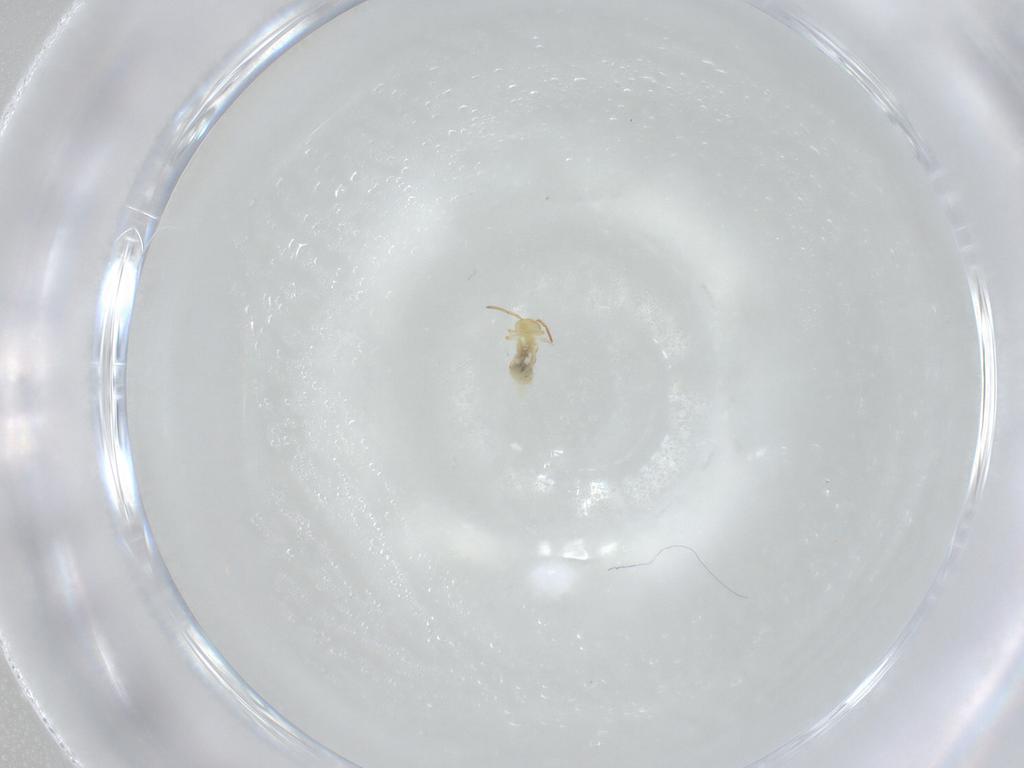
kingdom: Animalia
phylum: Arthropoda
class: Collembola
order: Symphypleona
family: Bourletiellidae
